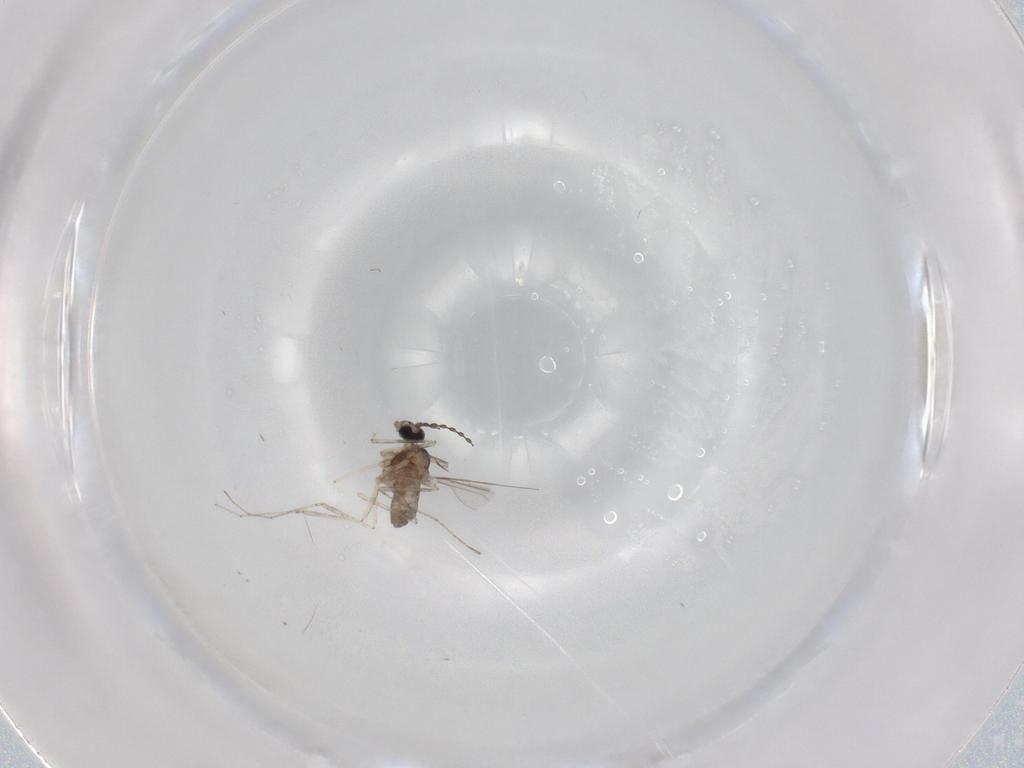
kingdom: Animalia
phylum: Arthropoda
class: Insecta
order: Diptera
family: Cecidomyiidae
